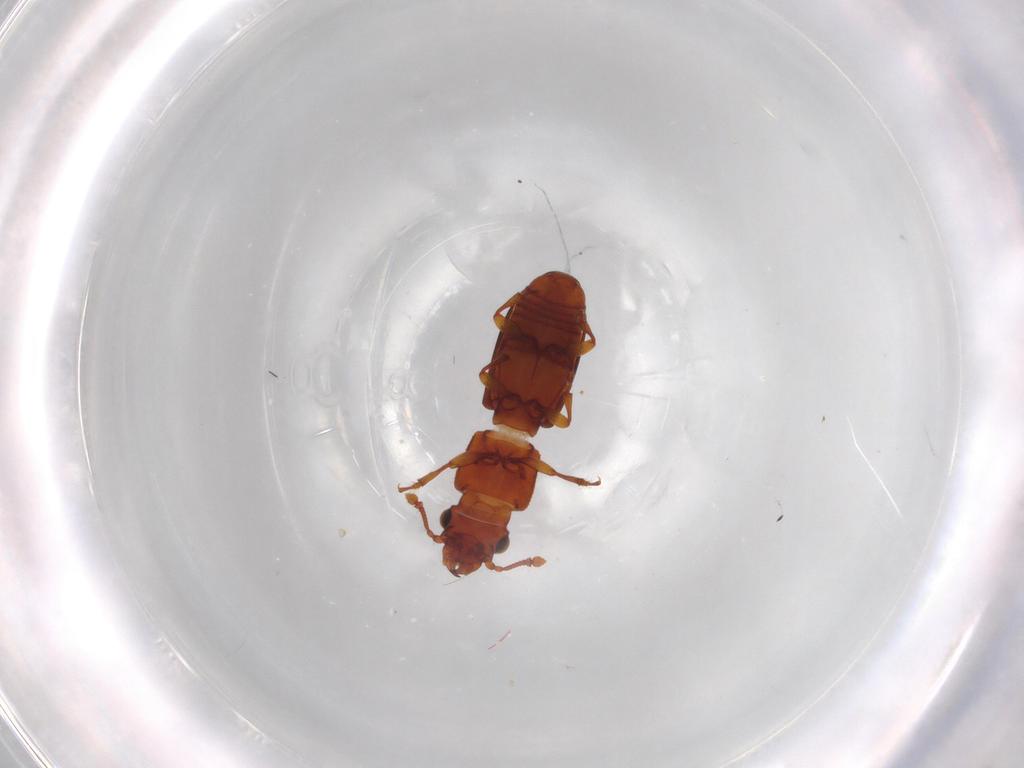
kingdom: Animalia
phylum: Arthropoda
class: Insecta
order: Coleoptera
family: Monotomidae
